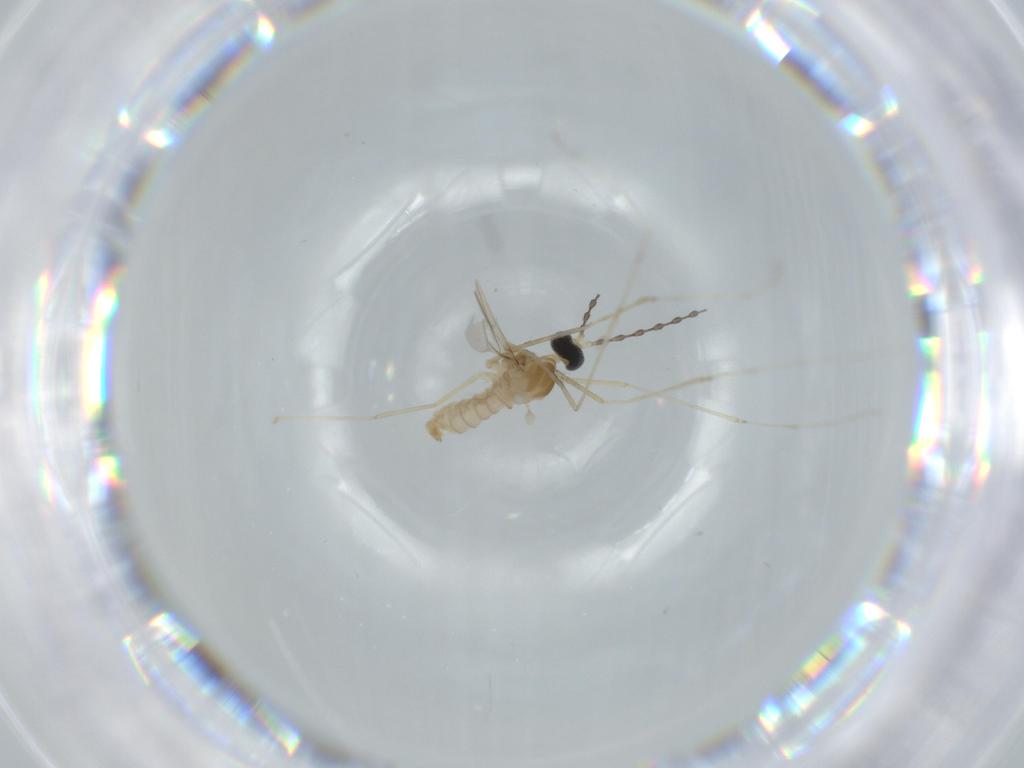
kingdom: Animalia
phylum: Arthropoda
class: Insecta
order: Diptera
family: Cecidomyiidae
